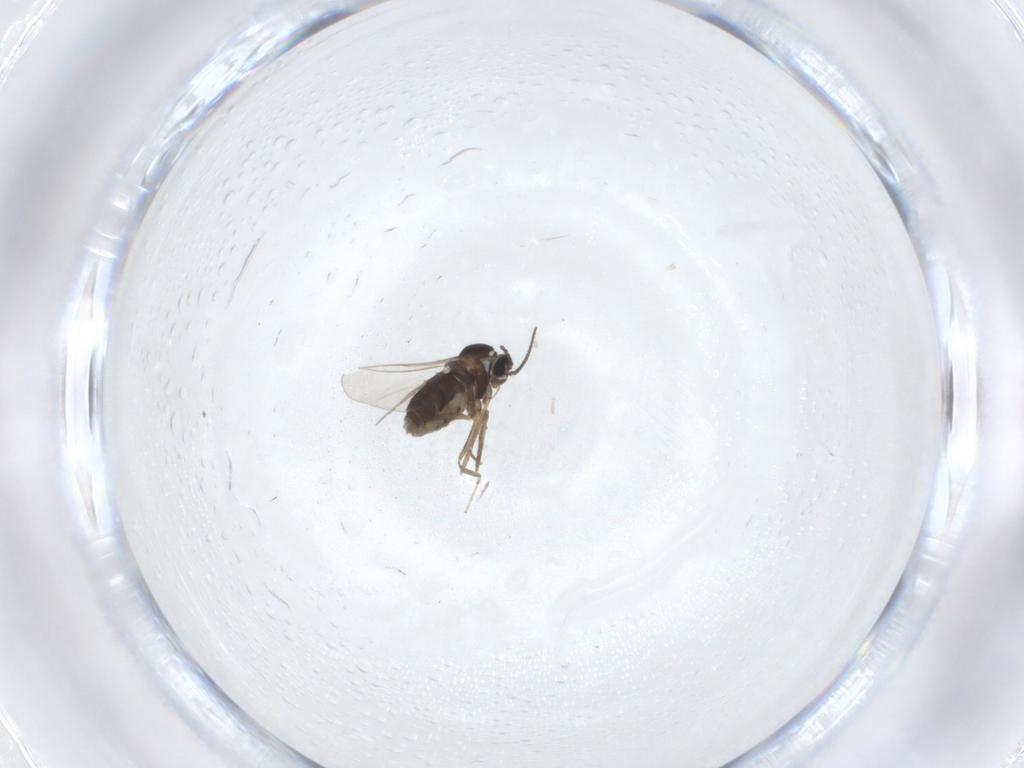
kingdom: Animalia
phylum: Arthropoda
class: Insecta
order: Diptera
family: Cecidomyiidae
